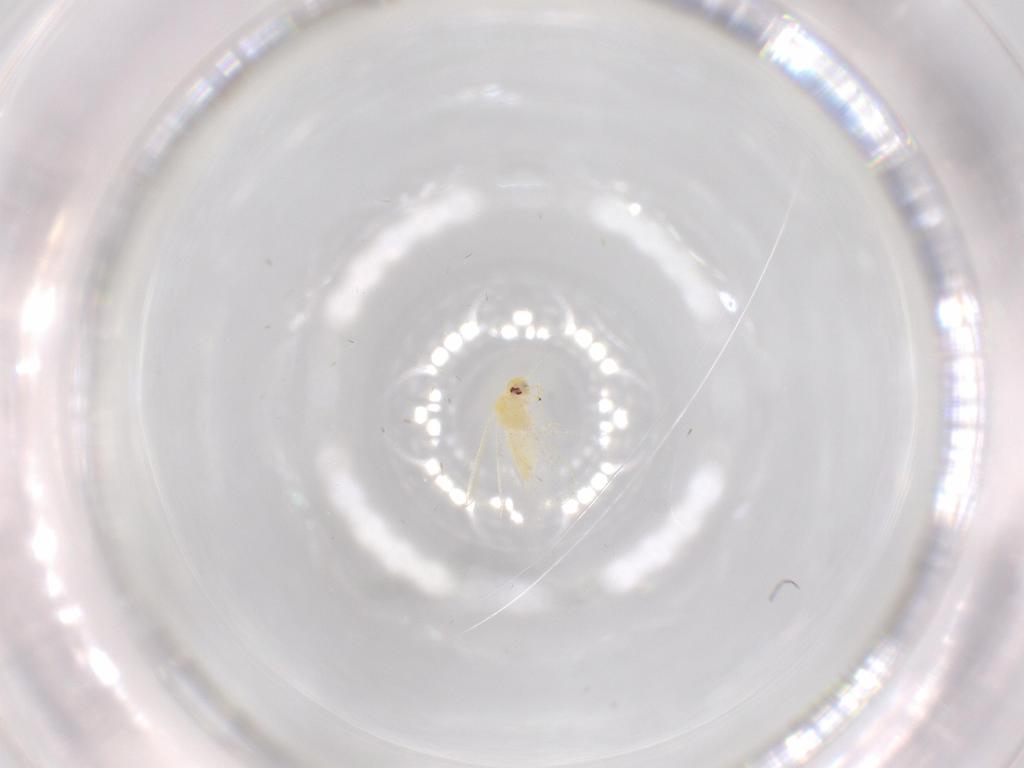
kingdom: Animalia
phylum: Arthropoda
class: Insecta
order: Hemiptera
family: Aleyrodidae
